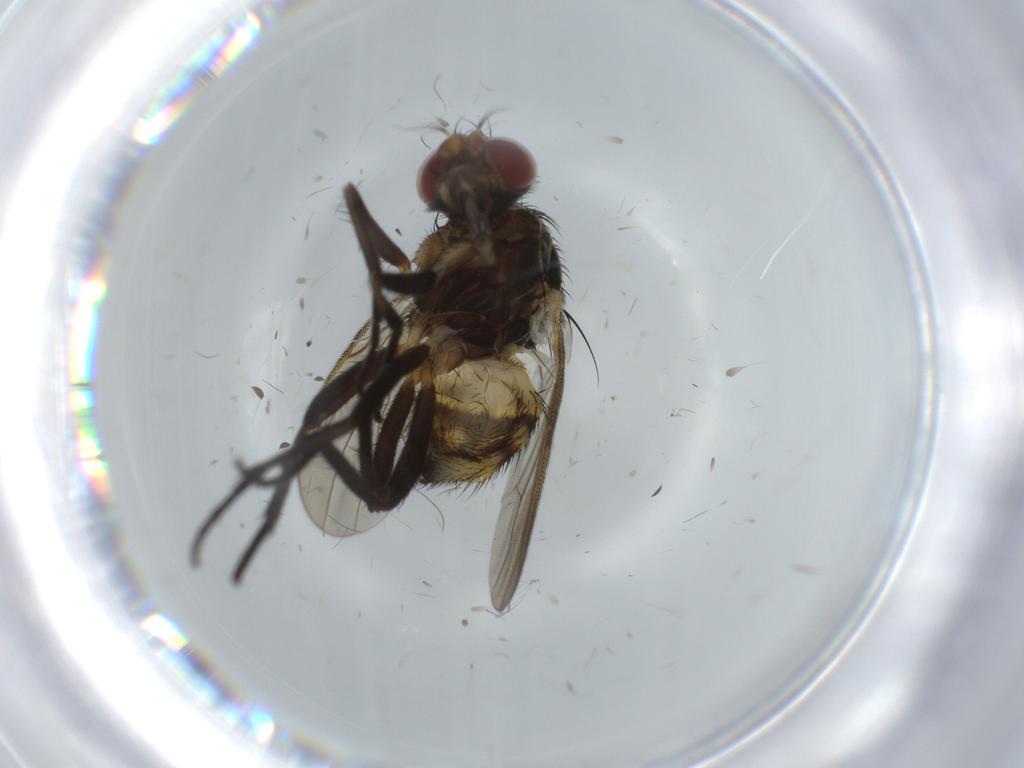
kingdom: Animalia
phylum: Arthropoda
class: Insecta
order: Diptera
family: Anthomyiidae
